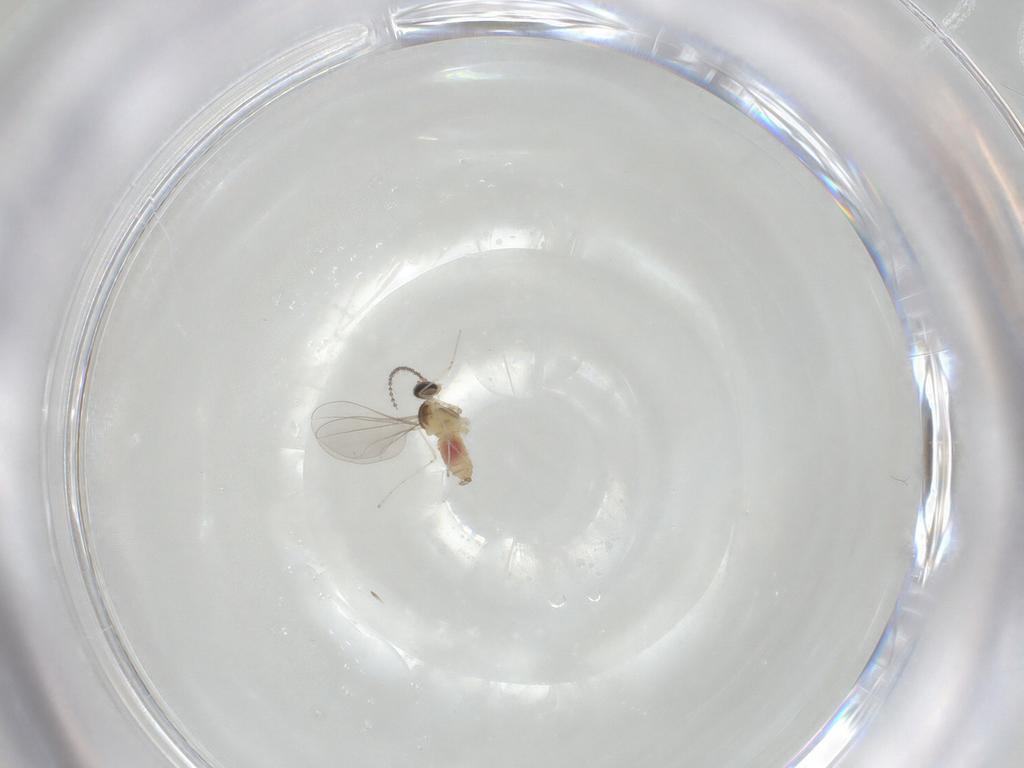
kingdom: Animalia
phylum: Arthropoda
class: Insecta
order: Diptera
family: Cecidomyiidae
